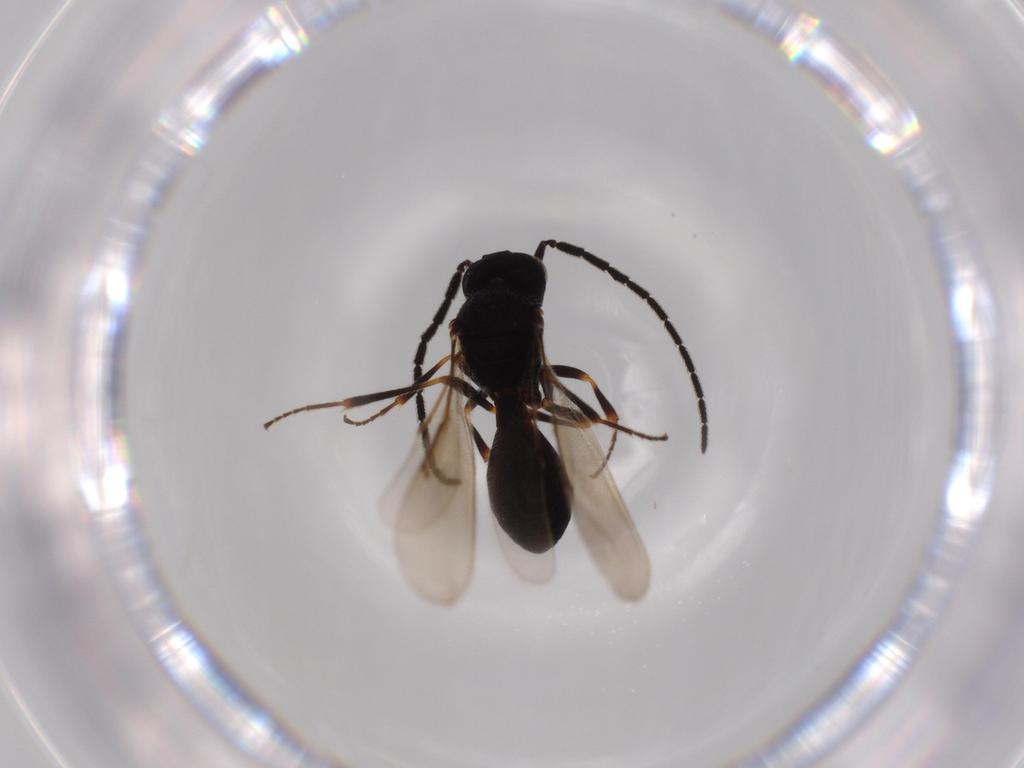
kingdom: Animalia
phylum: Arthropoda
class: Insecta
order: Hymenoptera
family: Scelionidae
